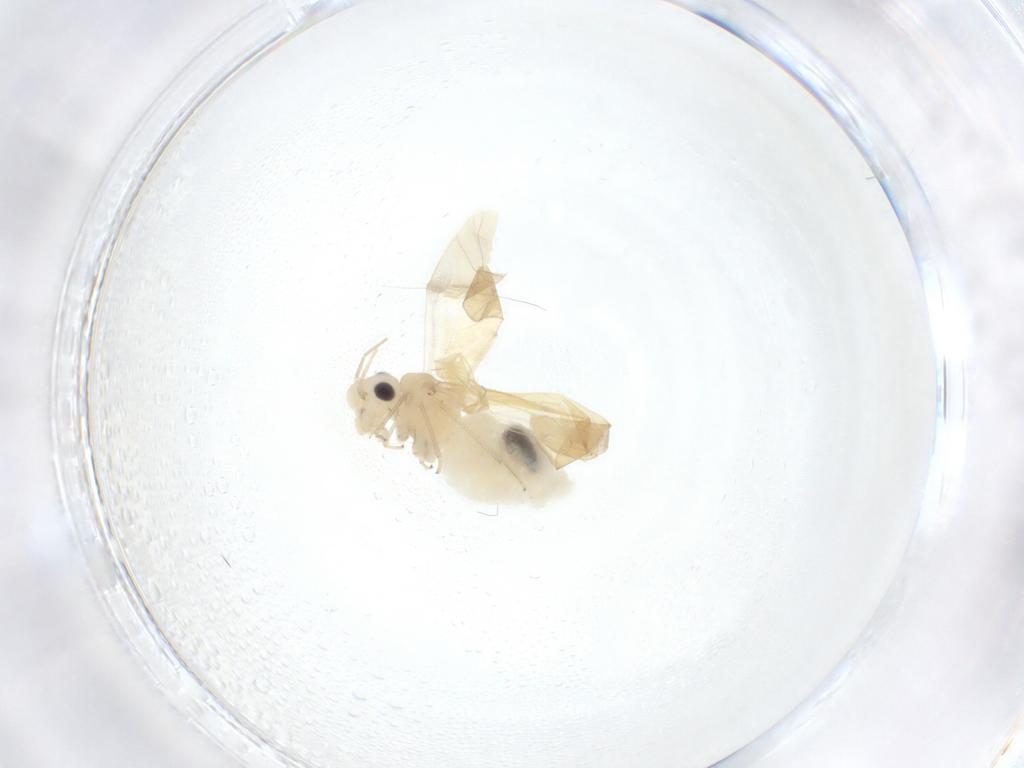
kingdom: Animalia
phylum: Arthropoda
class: Insecta
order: Psocodea
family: Caeciliusidae
